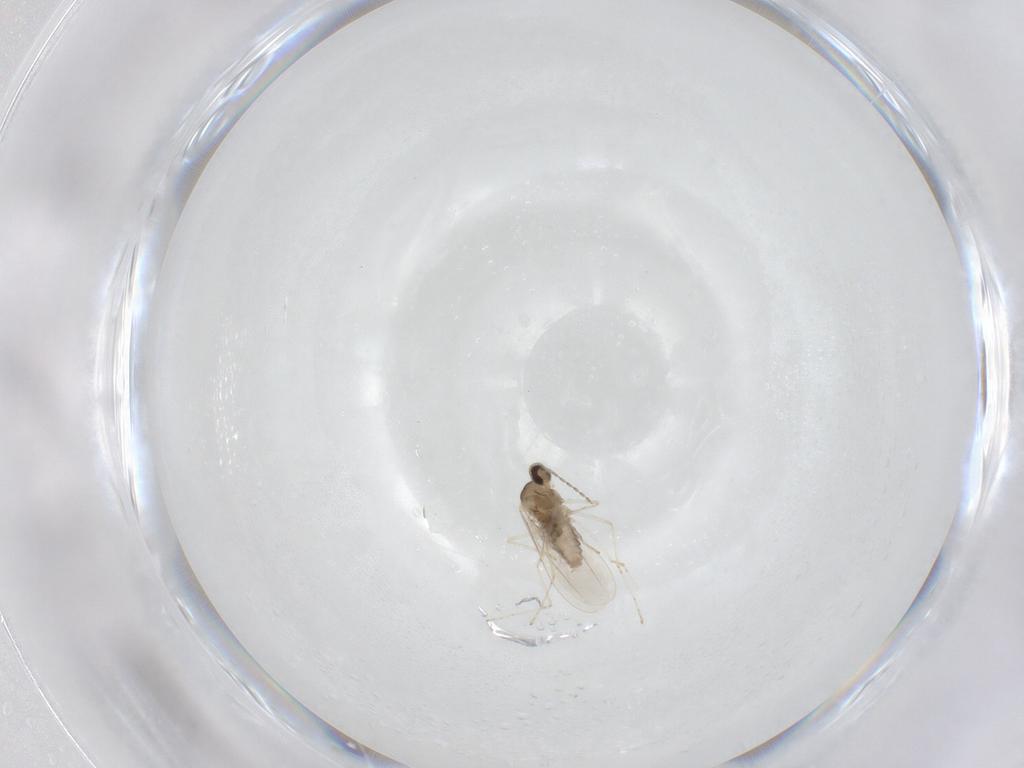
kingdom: Animalia
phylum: Arthropoda
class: Insecta
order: Diptera
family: Cecidomyiidae
